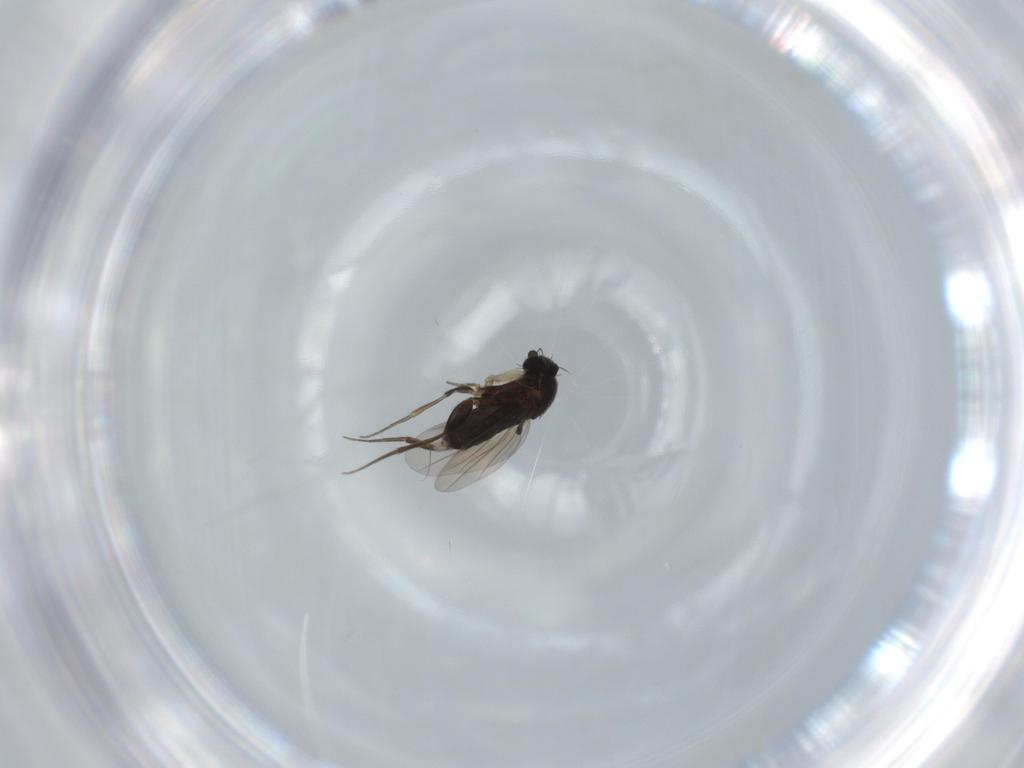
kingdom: Animalia
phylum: Arthropoda
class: Insecta
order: Diptera
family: Phoridae
